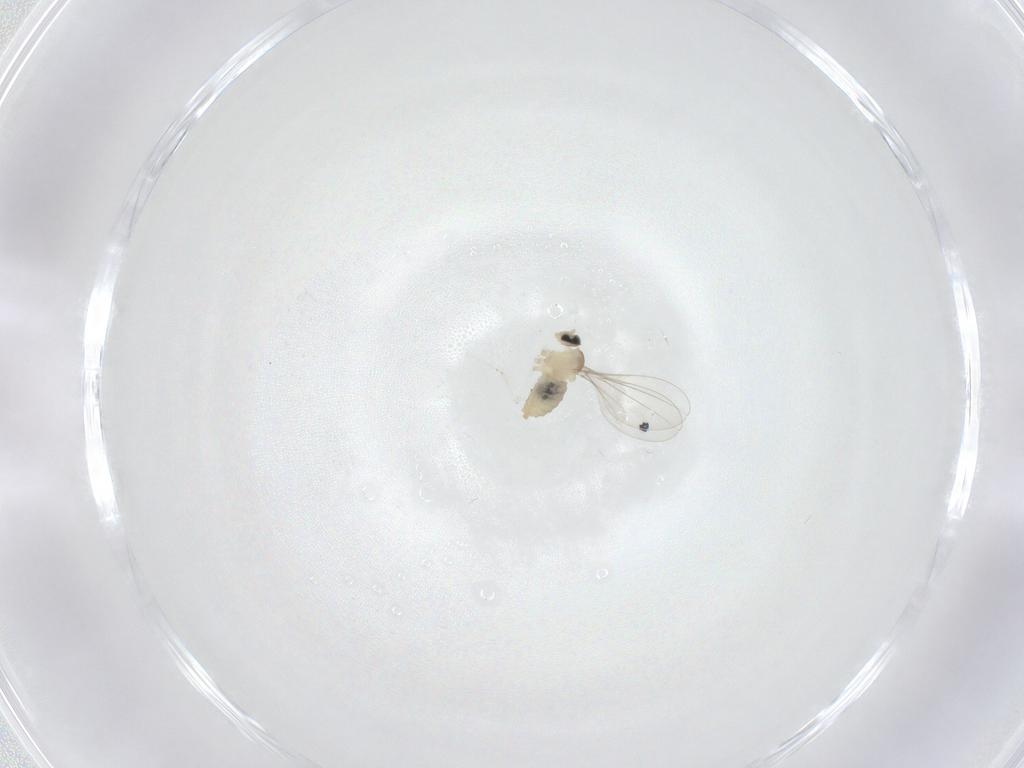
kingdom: Animalia
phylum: Arthropoda
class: Insecta
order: Diptera
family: Cecidomyiidae
